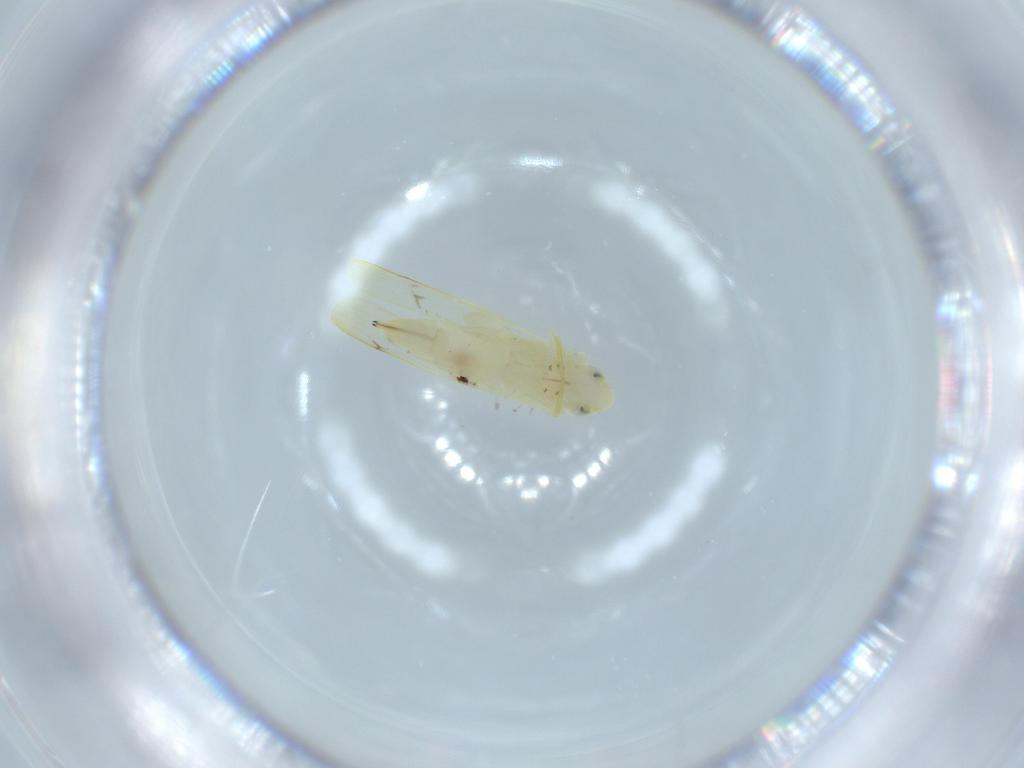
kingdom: Animalia
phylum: Arthropoda
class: Insecta
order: Hemiptera
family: Cicadellidae
